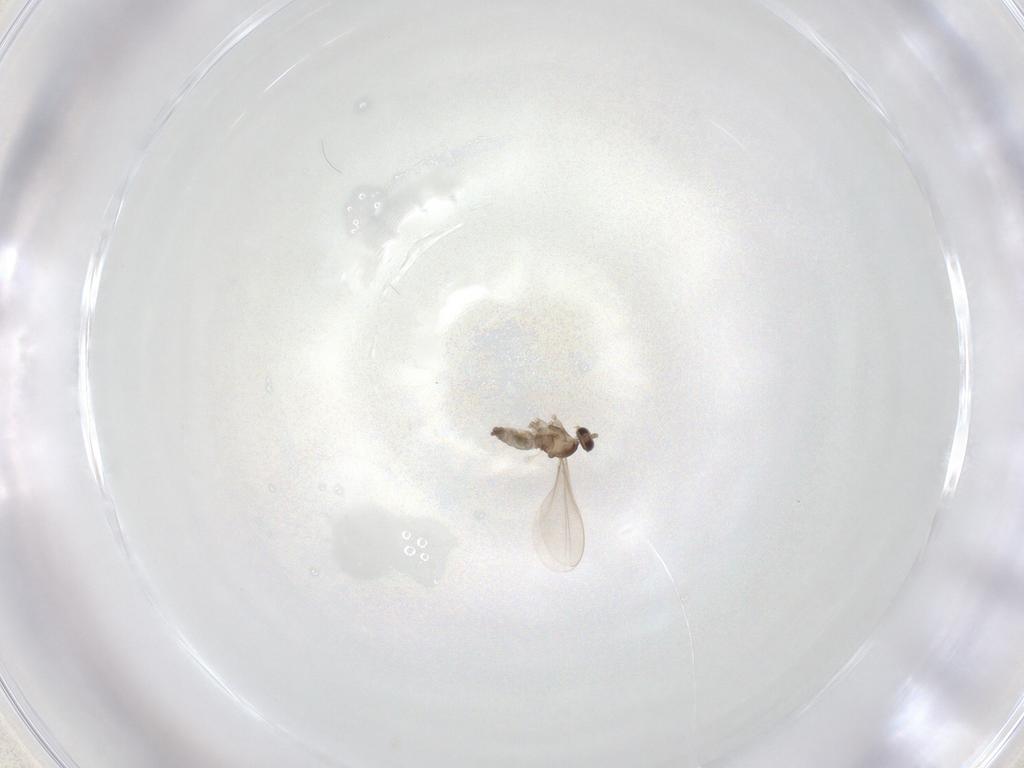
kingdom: Animalia
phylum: Arthropoda
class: Insecta
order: Diptera
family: Cecidomyiidae
